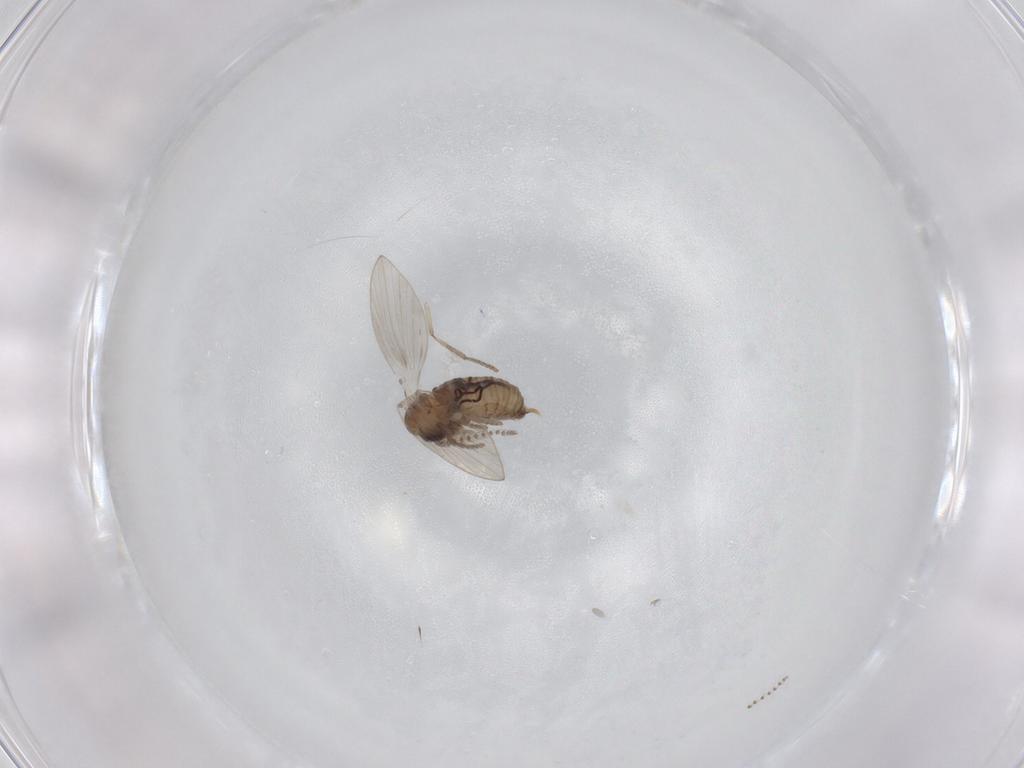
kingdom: Animalia
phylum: Arthropoda
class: Insecta
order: Diptera
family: Psychodidae
